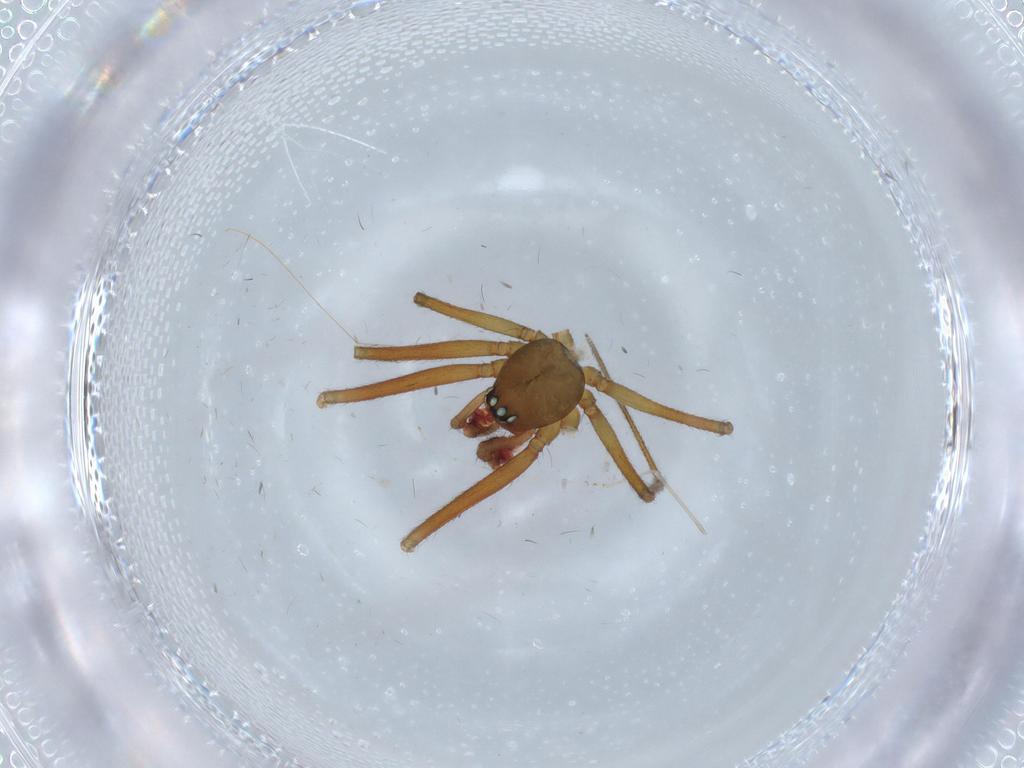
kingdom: Animalia
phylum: Arthropoda
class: Arachnida
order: Araneae
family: Linyphiidae
